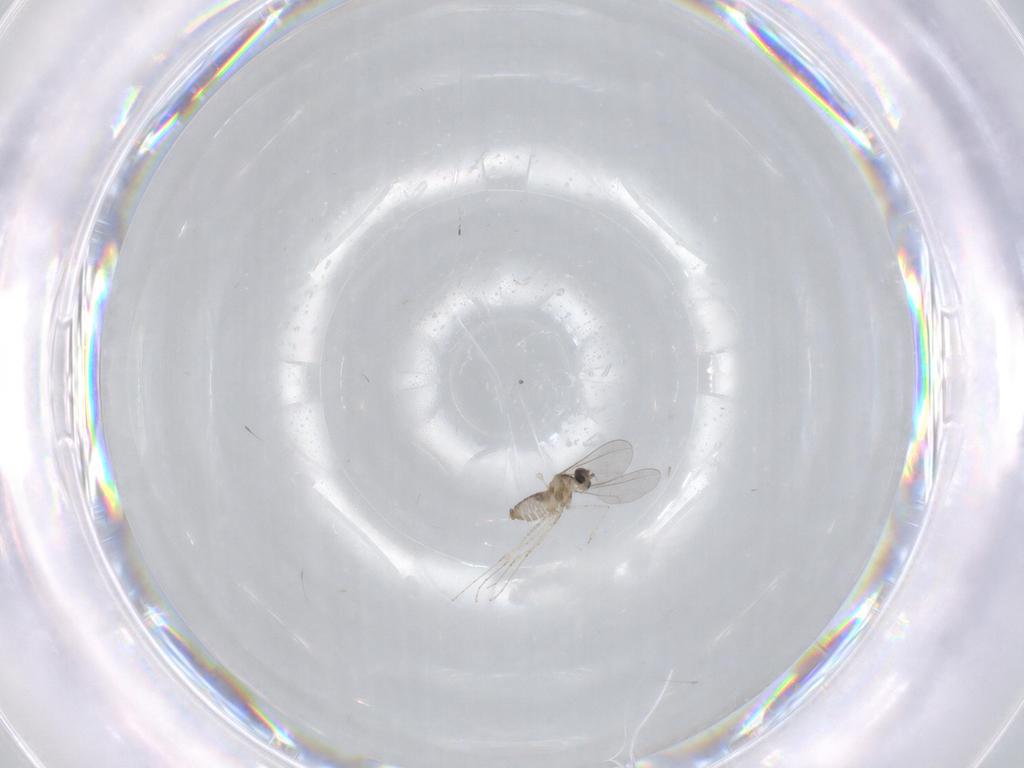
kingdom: Animalia
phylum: Arthropoda
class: Insecta
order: Diptera
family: Cecidomyiidae
